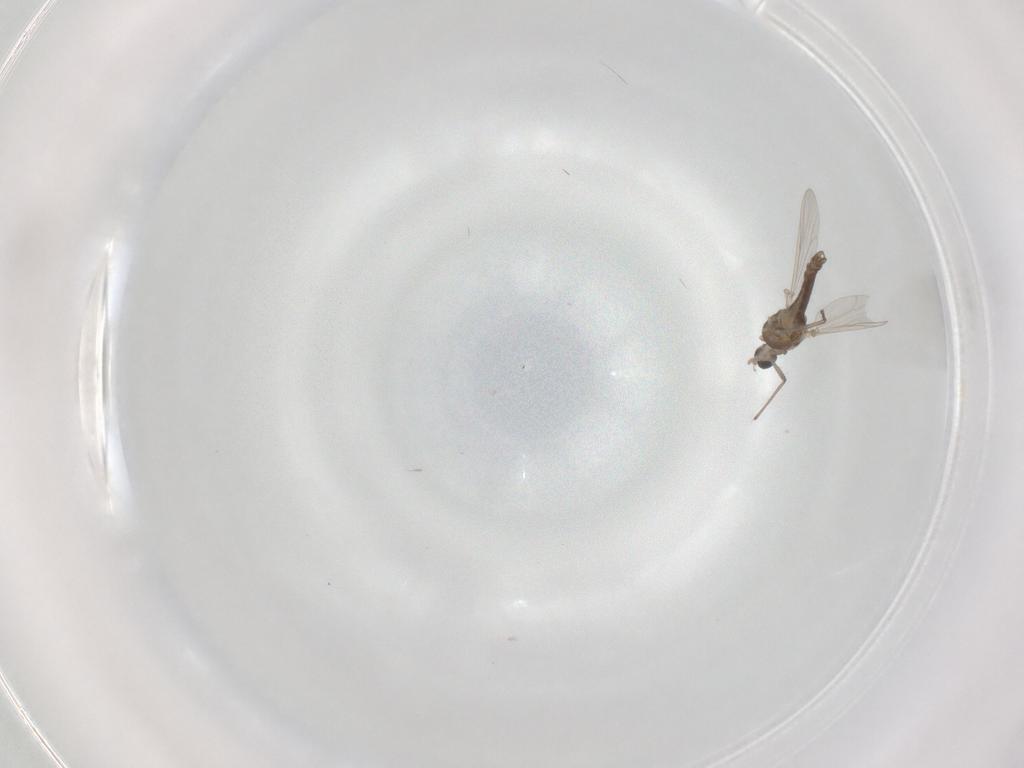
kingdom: Animalia
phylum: Arthropoda
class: Insecta
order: Diptera
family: Chironomidae
